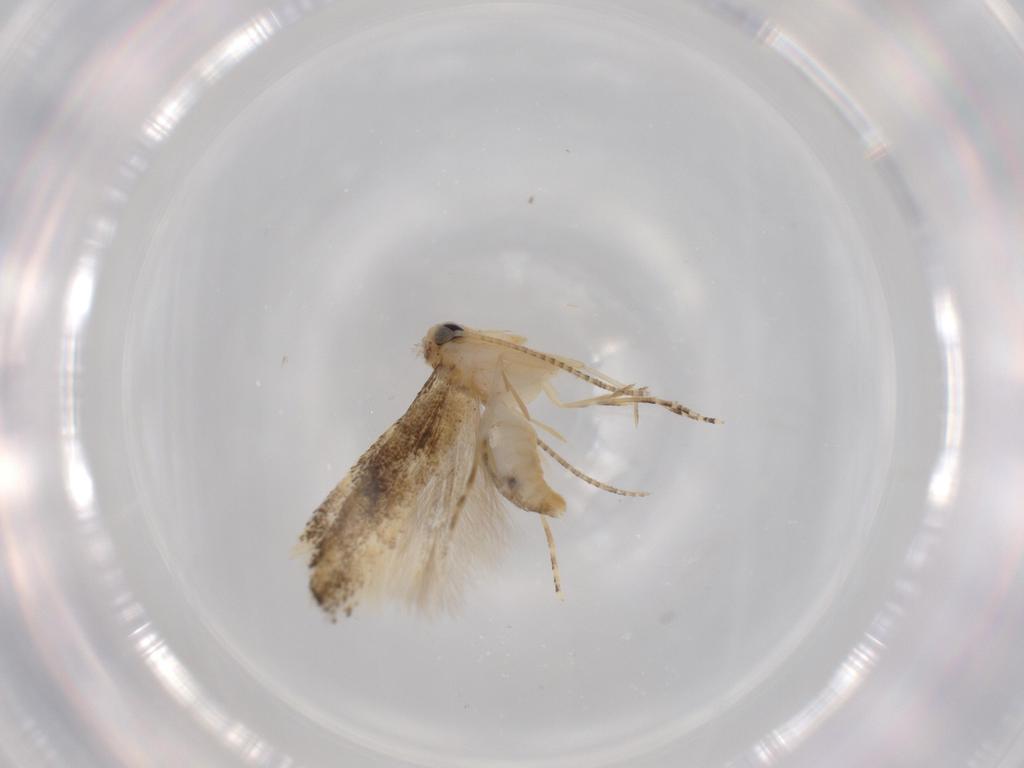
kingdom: Animalia
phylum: Arthropoda
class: Insecta
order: Lepidoptera
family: Bucculatricidae
